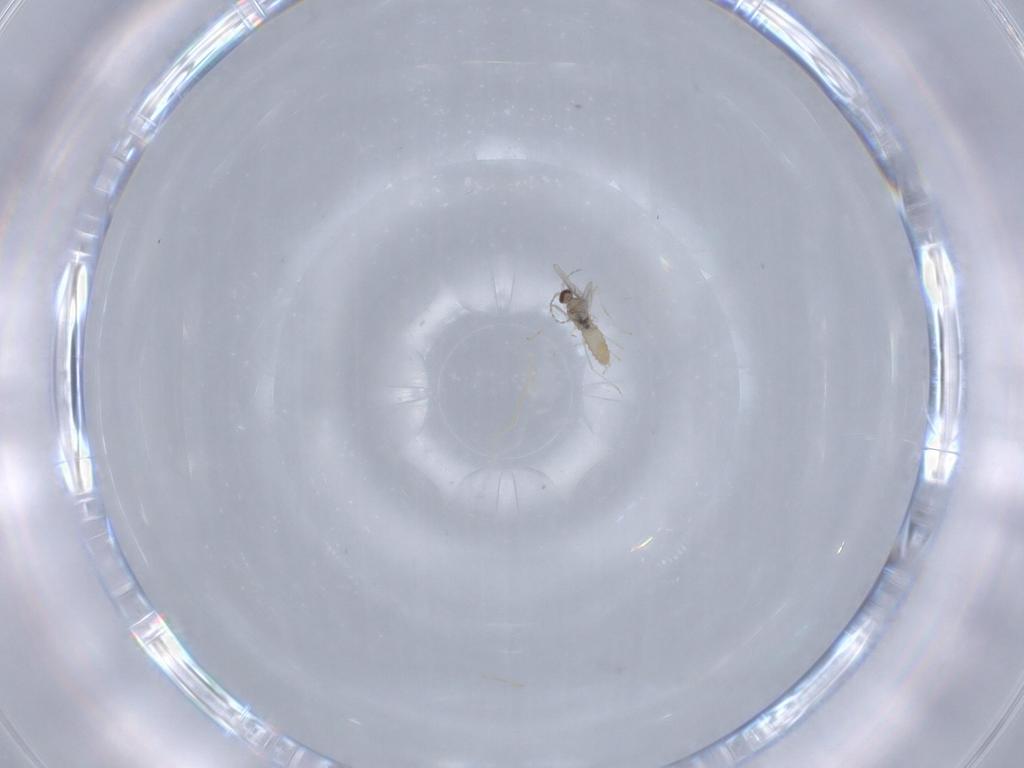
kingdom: Animalia
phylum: Arthropoda
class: Insecta
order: Diptera
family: Cecidomyiidae
